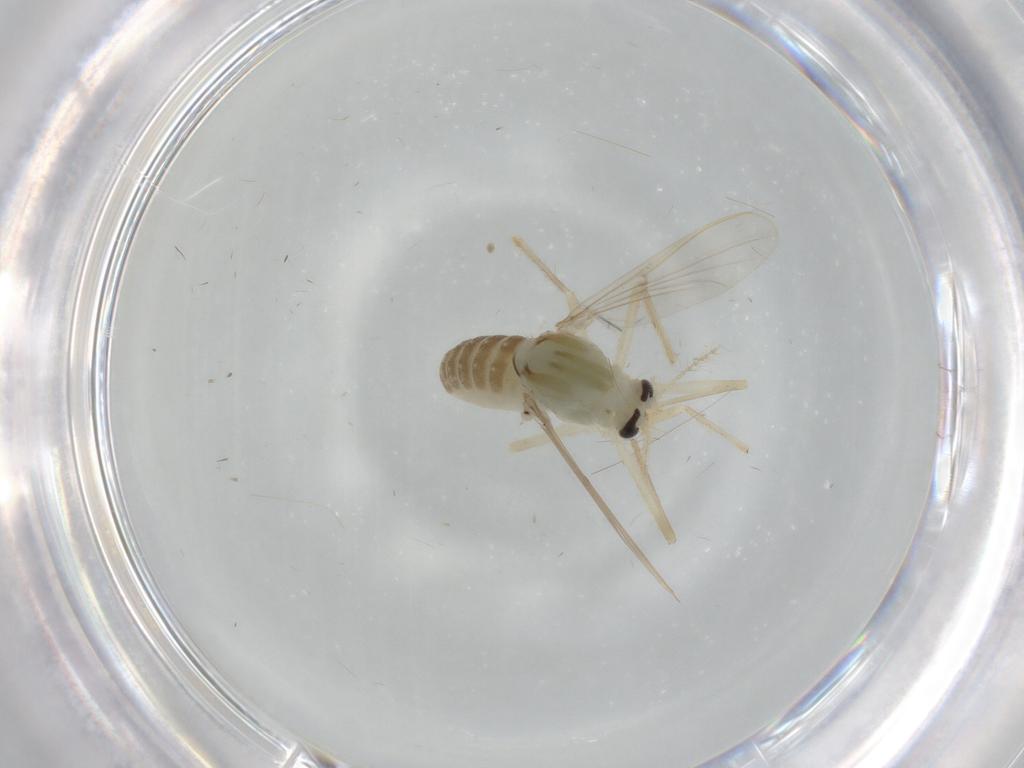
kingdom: Animalia
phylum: Arthropoda
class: Insecta
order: Diptera
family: Chironomidae
